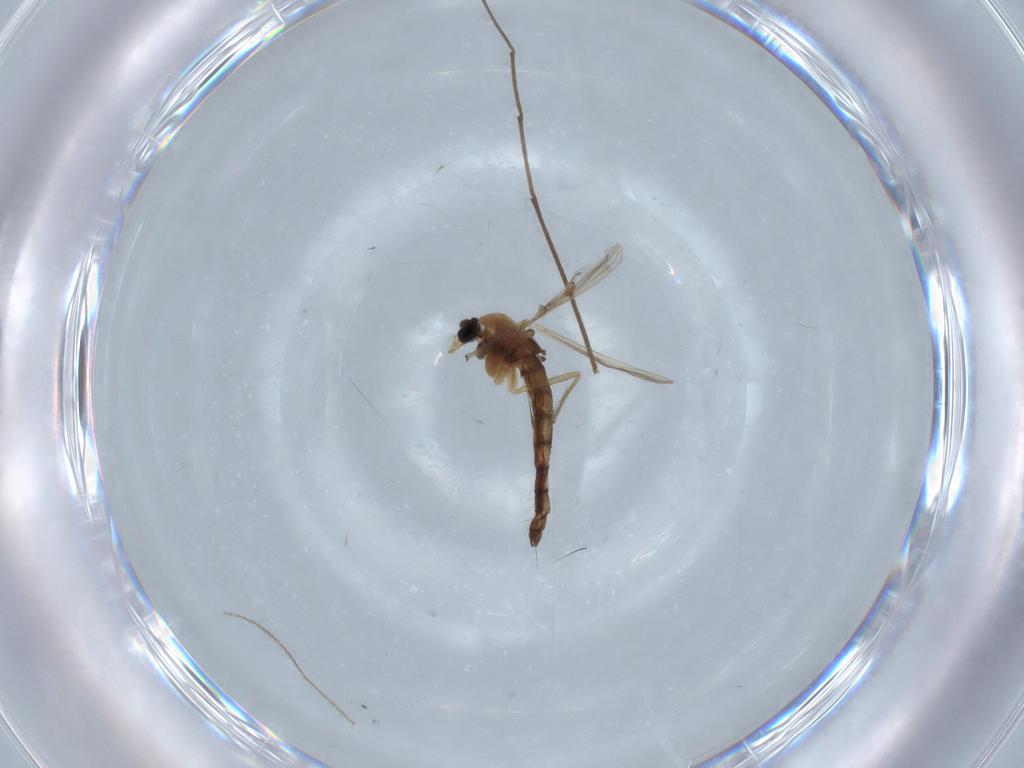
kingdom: Animalia
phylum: Arthropoda
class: Insecta
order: Diptera
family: Chironomidae
